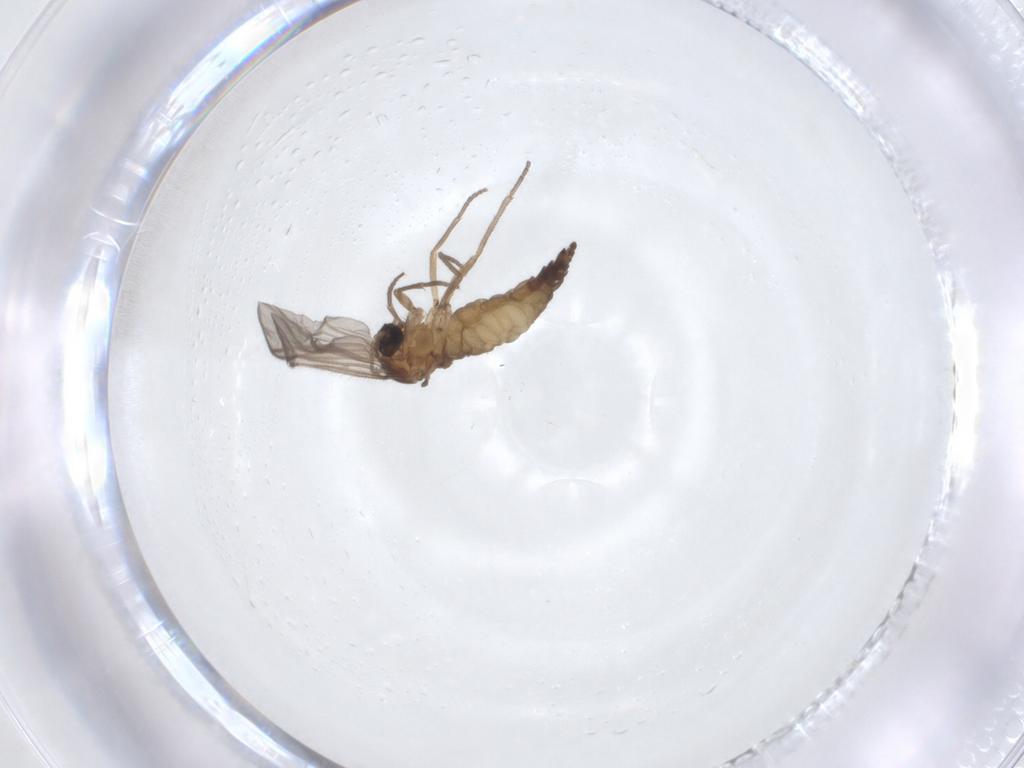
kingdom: Animalia
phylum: Arthropoda
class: Insecta
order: Diptera
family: Sciaridae
